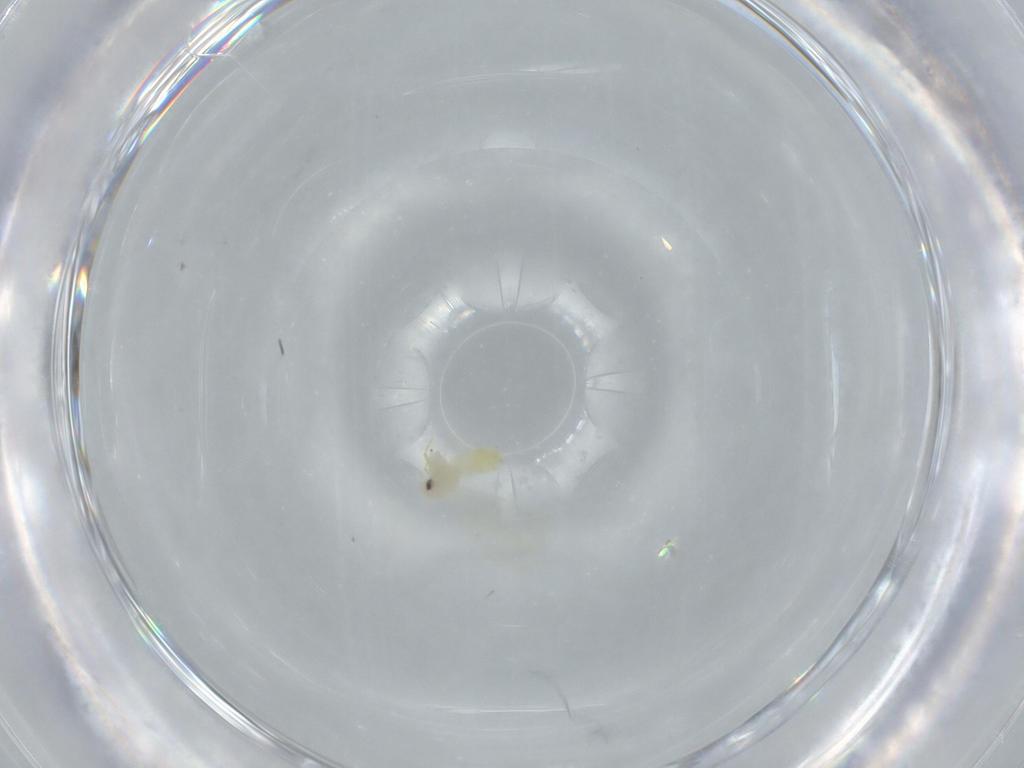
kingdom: Animalia
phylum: Arthropoda
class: Insecta
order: Hemiptera
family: Aleyrodidae
